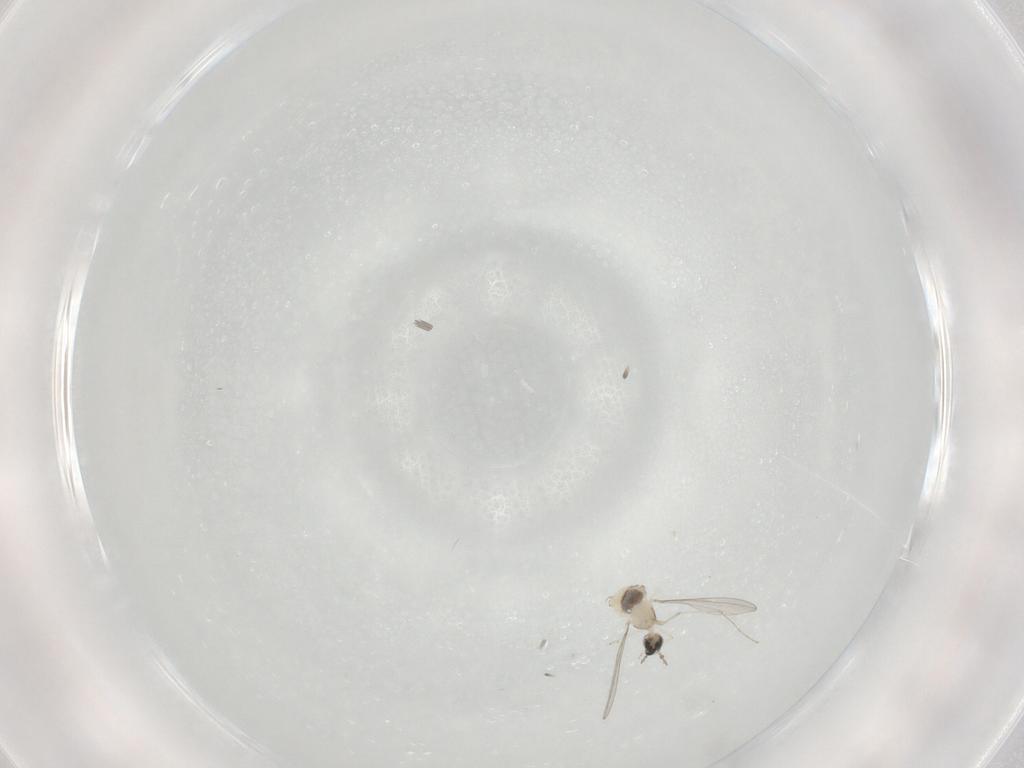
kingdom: Animalia
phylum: Arthropoda
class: Insecta
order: Diptera
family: Cecidomyiidae
